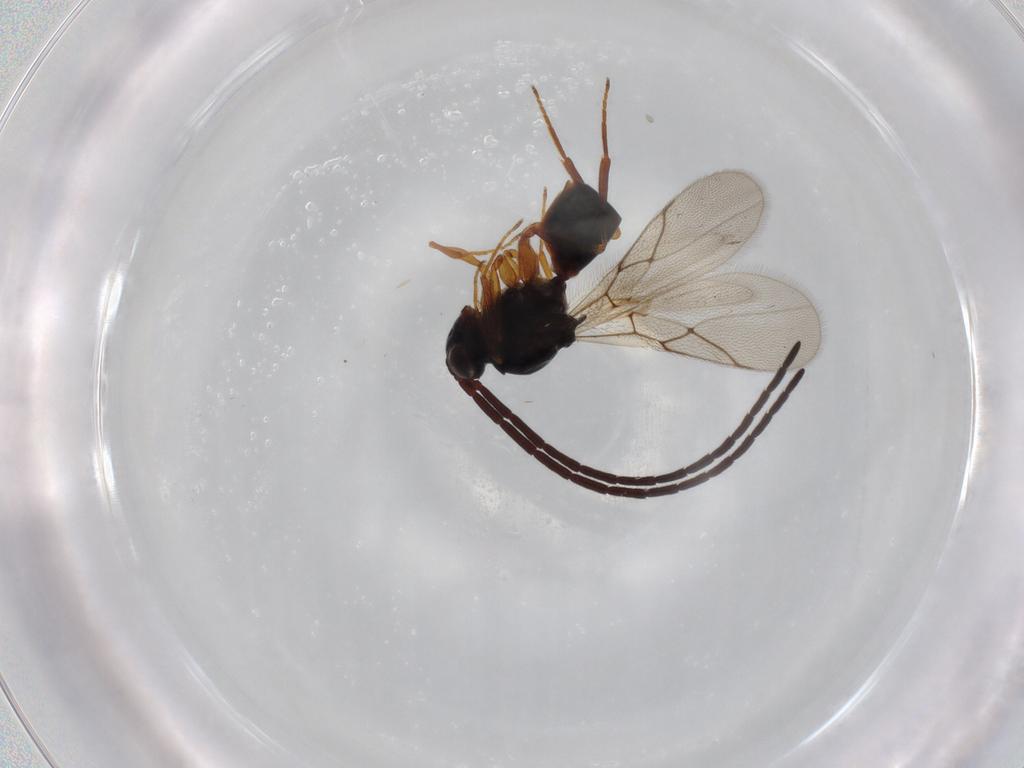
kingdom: Animalia
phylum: Arthropoda
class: Insecta
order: Hymenoptera
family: Figitidae
